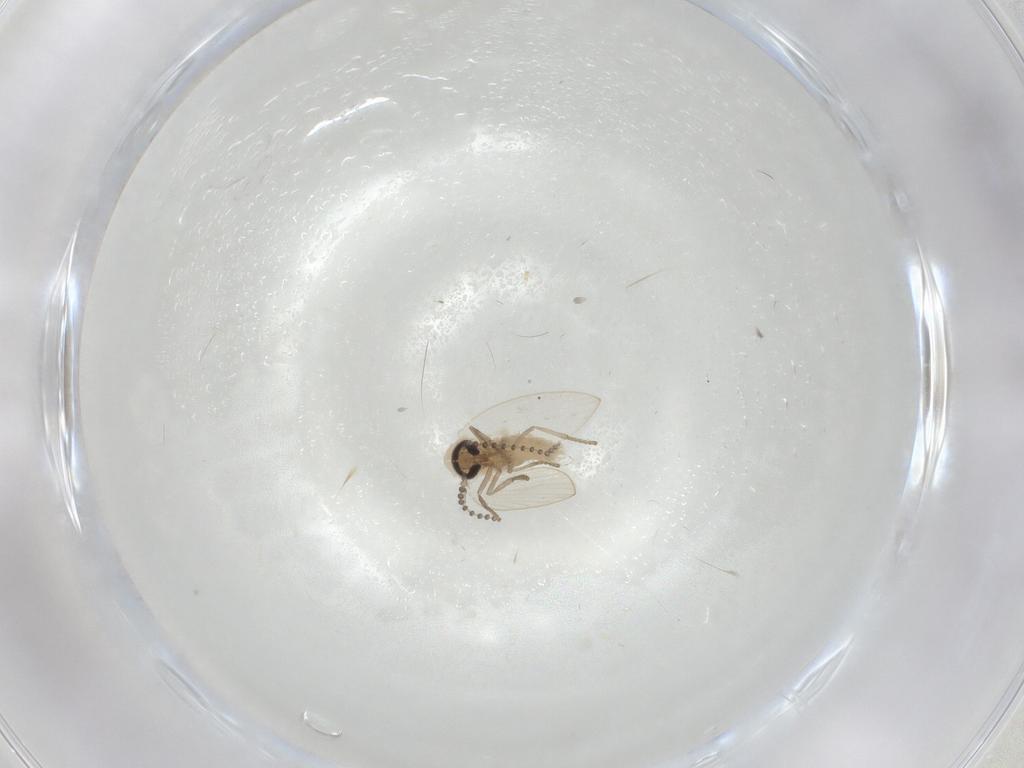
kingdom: Animalia
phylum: Arthropoda
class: Insecta
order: Diptera
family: Psychodidae
